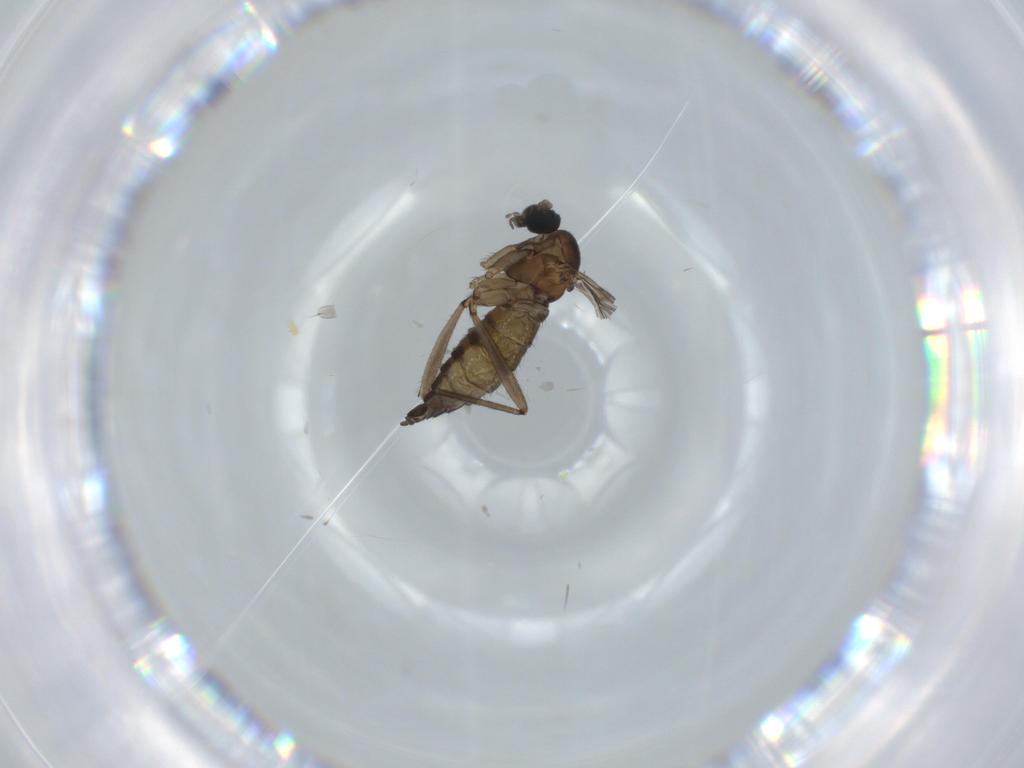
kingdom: Animalia
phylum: Arthropoda
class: Insecta
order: Diptera
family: Sciaridae
